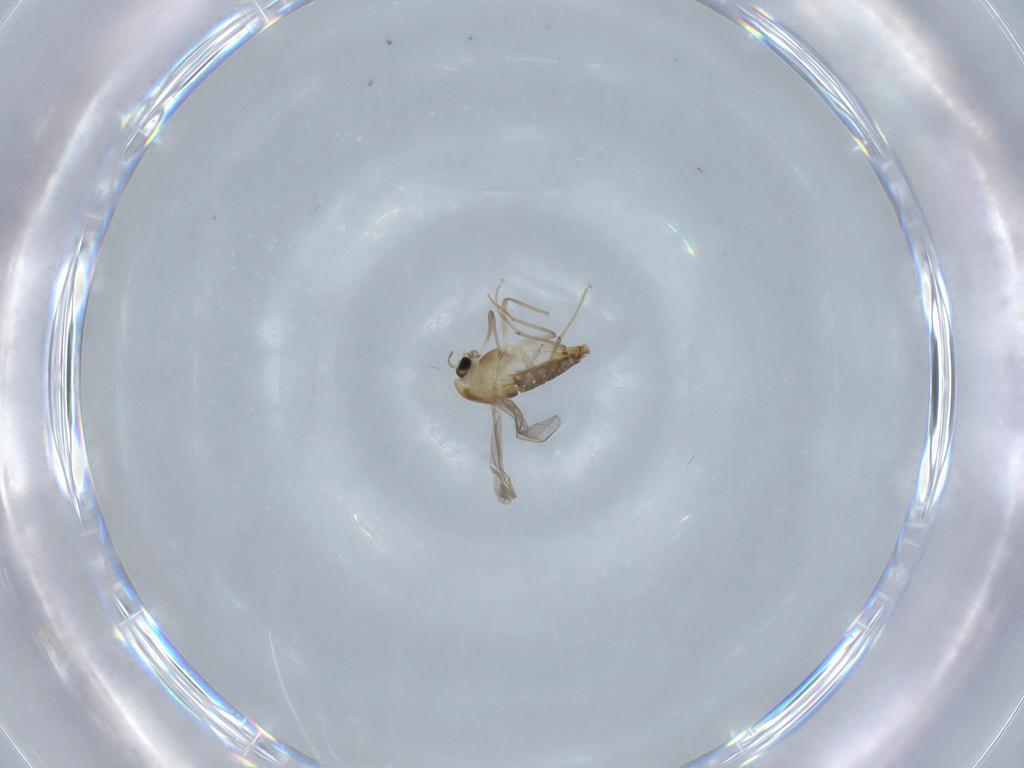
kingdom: Animalia
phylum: Arthropoda
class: Insecta
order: Diptera
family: Chironomidae
